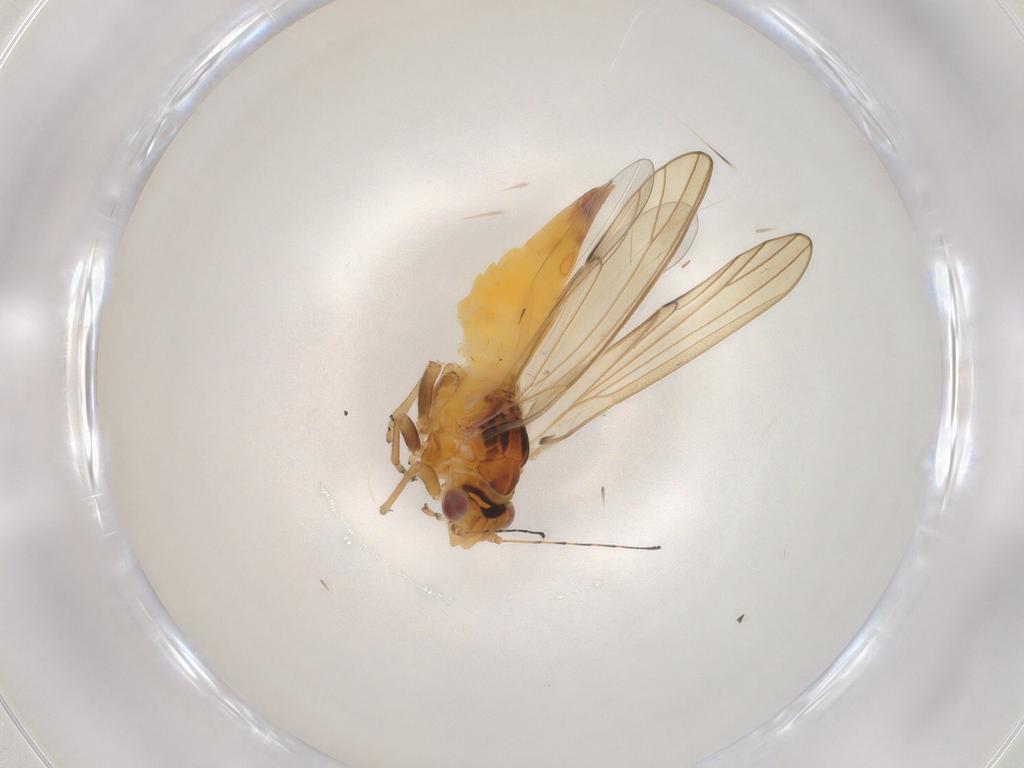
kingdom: Animalia
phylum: Arthropoda
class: Insecta
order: Hemiptera
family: Psylloidea_incertae_sedis
